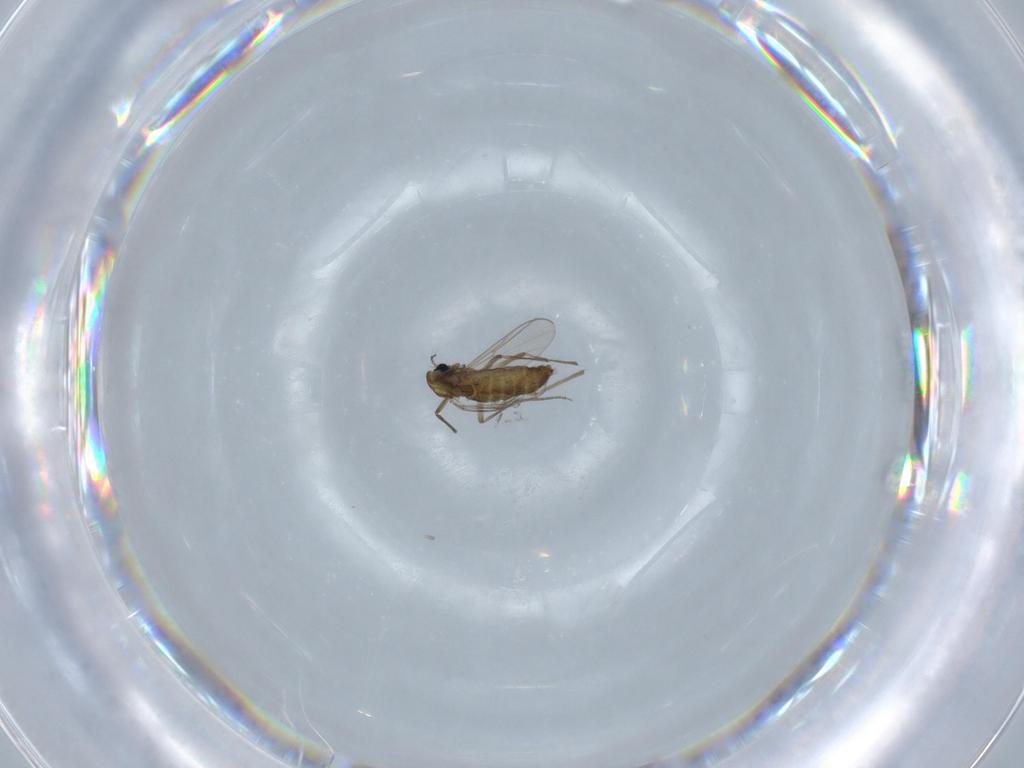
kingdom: Animalia
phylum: Arthropoda
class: Insecta
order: Diptera
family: Chironomidae
